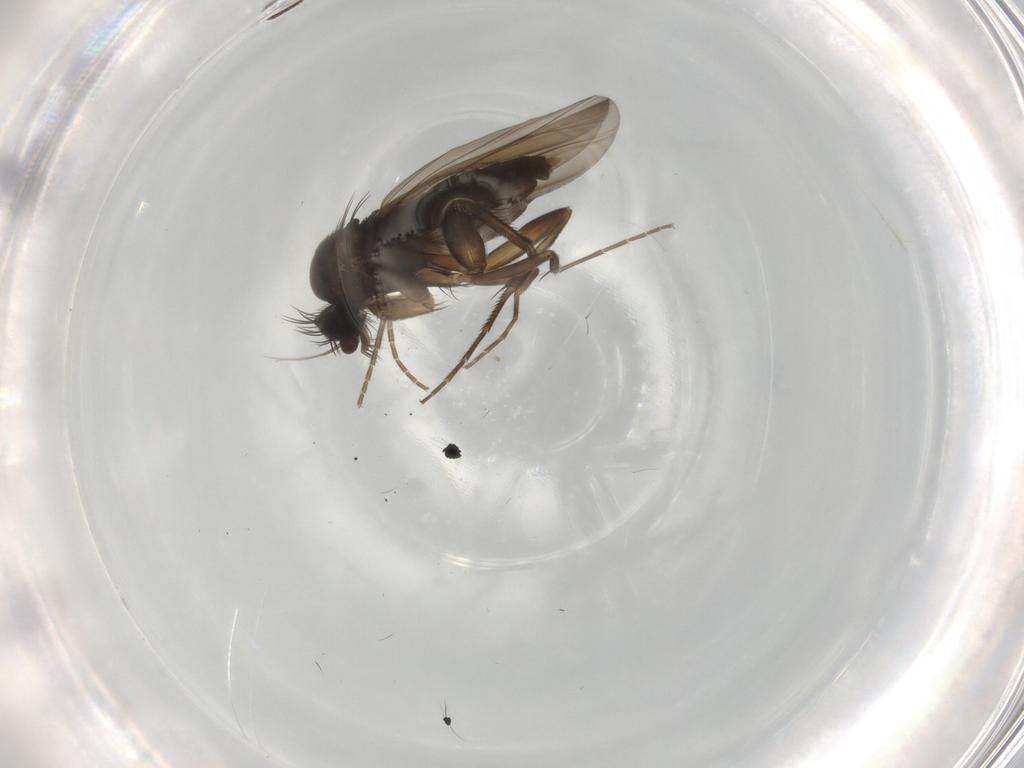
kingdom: Animalia
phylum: Arthropoda
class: Insecta
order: Diptera
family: Phoridae
